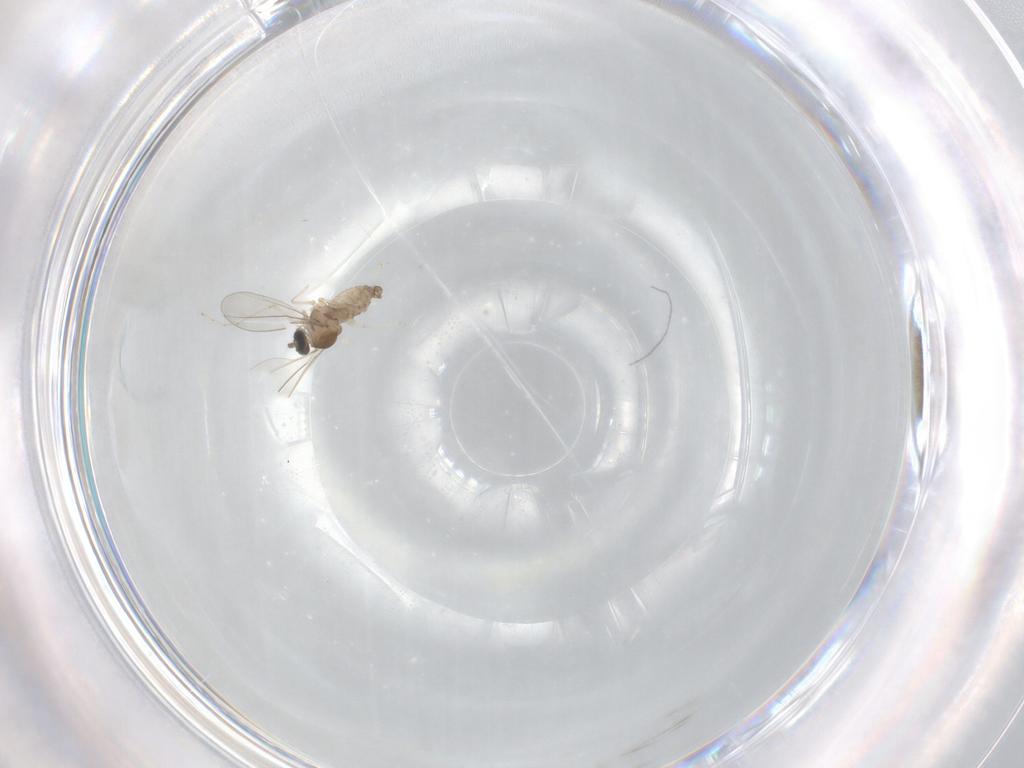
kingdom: Animalia
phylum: Arthropoda
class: Insecta
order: Diptera
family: Cecidomyiidae
